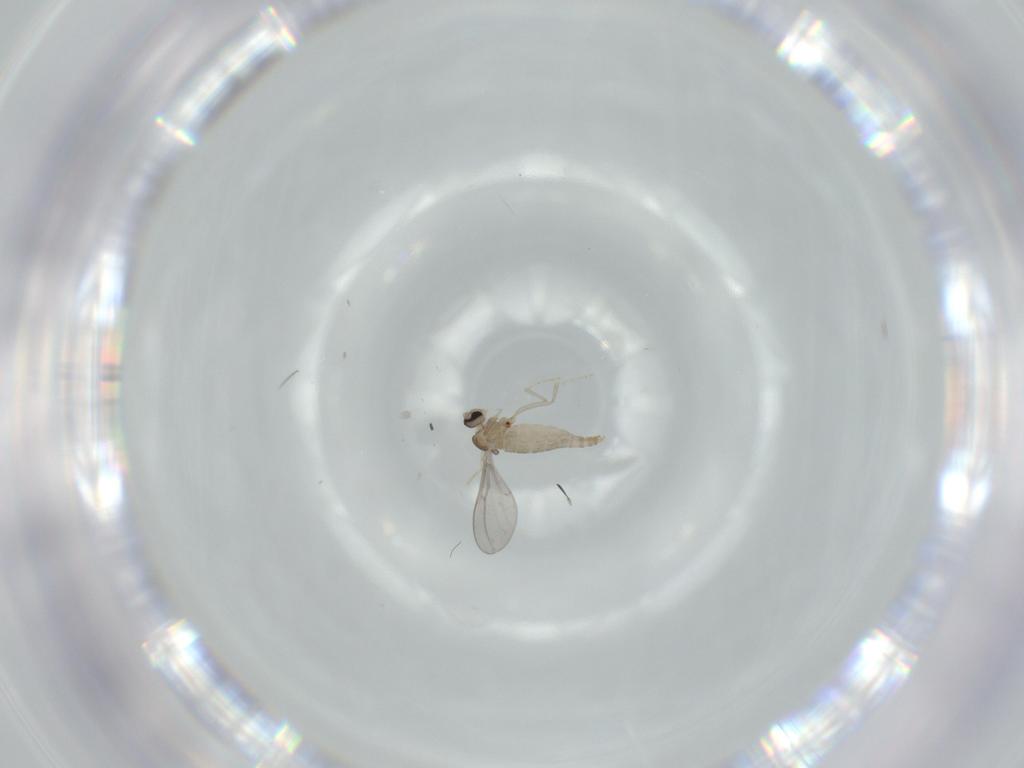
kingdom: Animalia
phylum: Arthropoda
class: Insecta
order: Diptera
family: Cecidomyiidae
